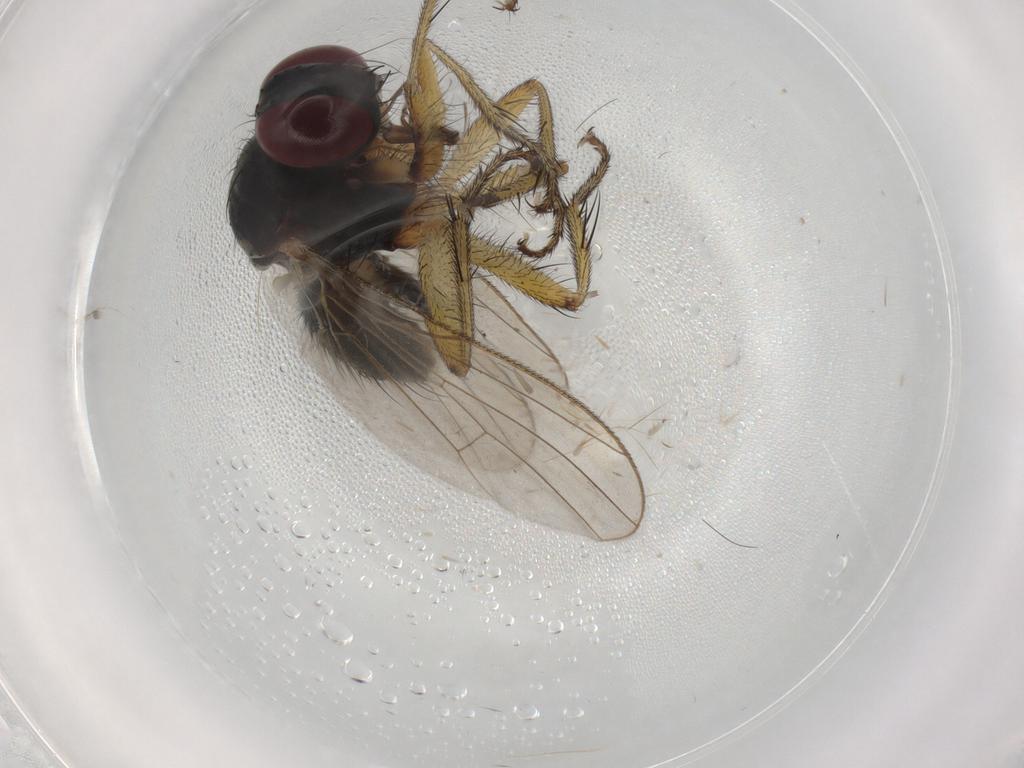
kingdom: Animalia
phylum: Arthropoda
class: Insecta
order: Diptera
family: Muscidae
